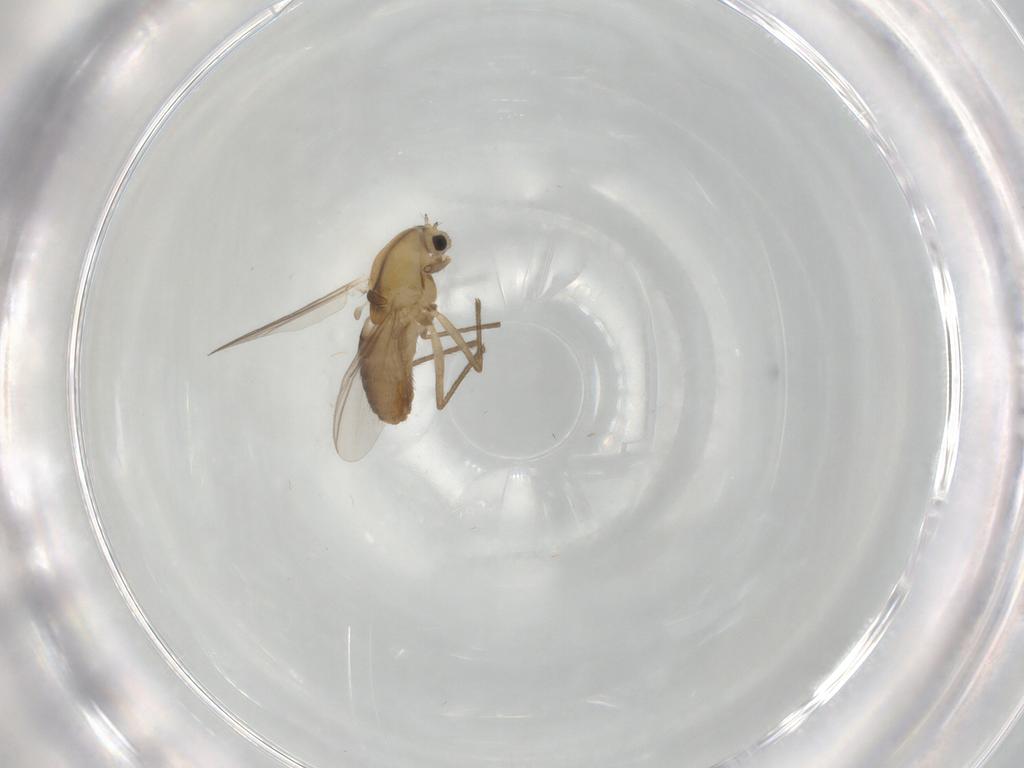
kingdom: Animalia
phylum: Arthropoda
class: Insecta
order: Diptera
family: Chironomidae
